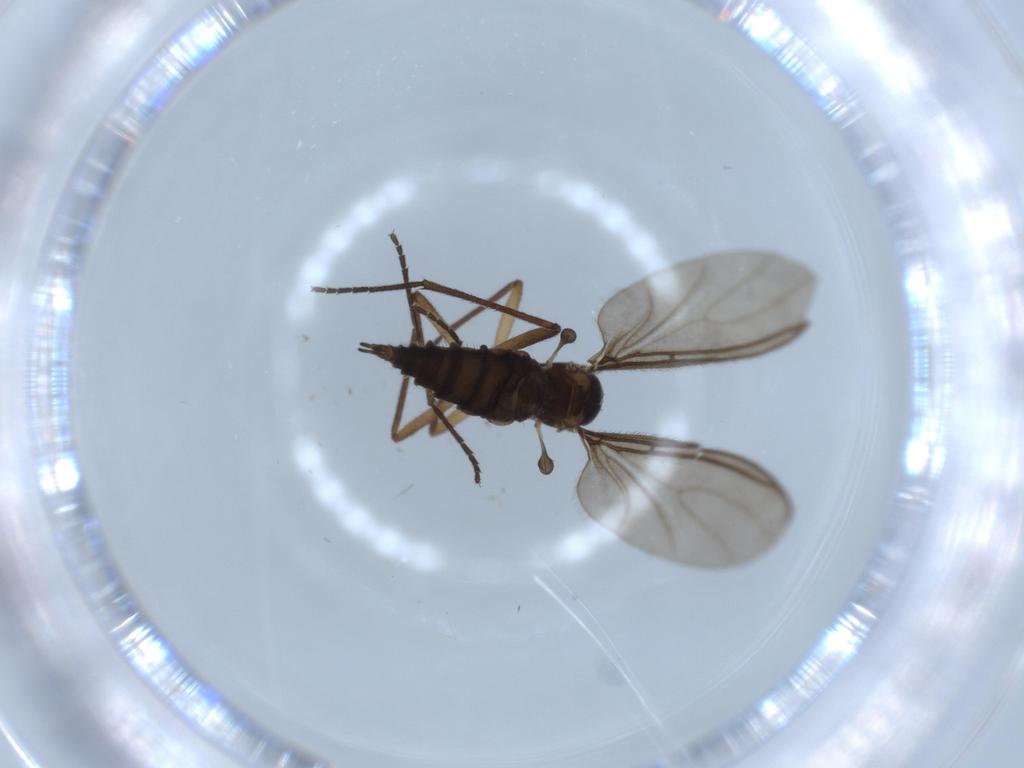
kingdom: Animalia
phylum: Arthropoda
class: Insecta
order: Diptera
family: Sciaridae
